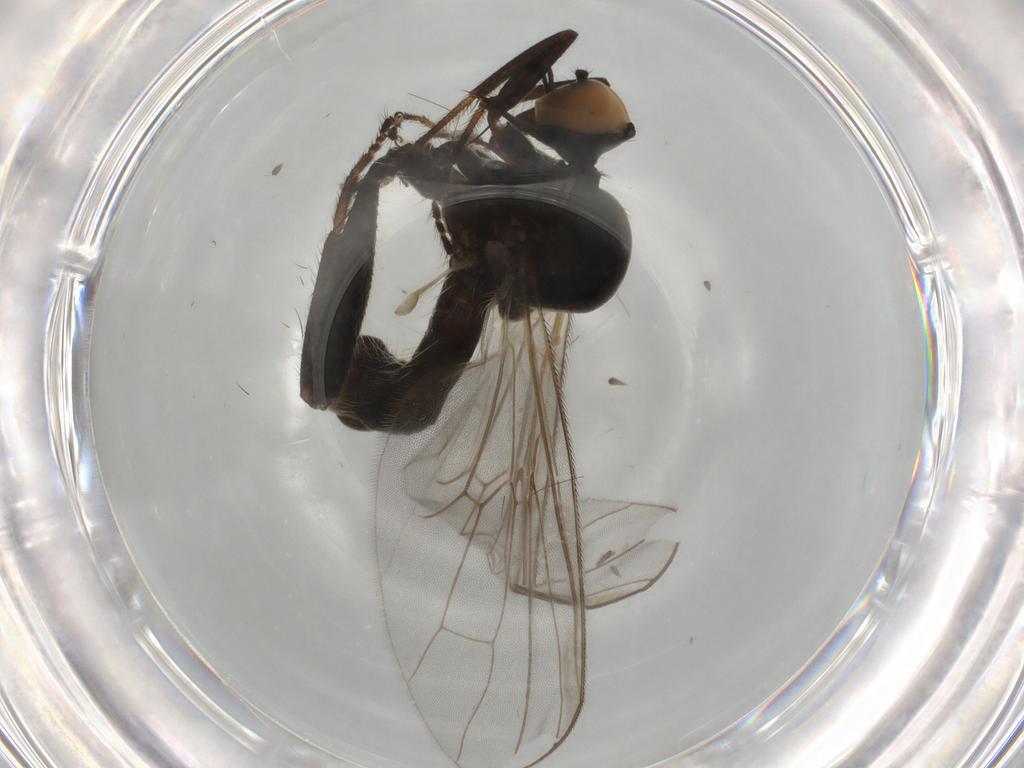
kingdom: Animalia
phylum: Arthropoda
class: Insecta
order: Diptera
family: Hybotidae
